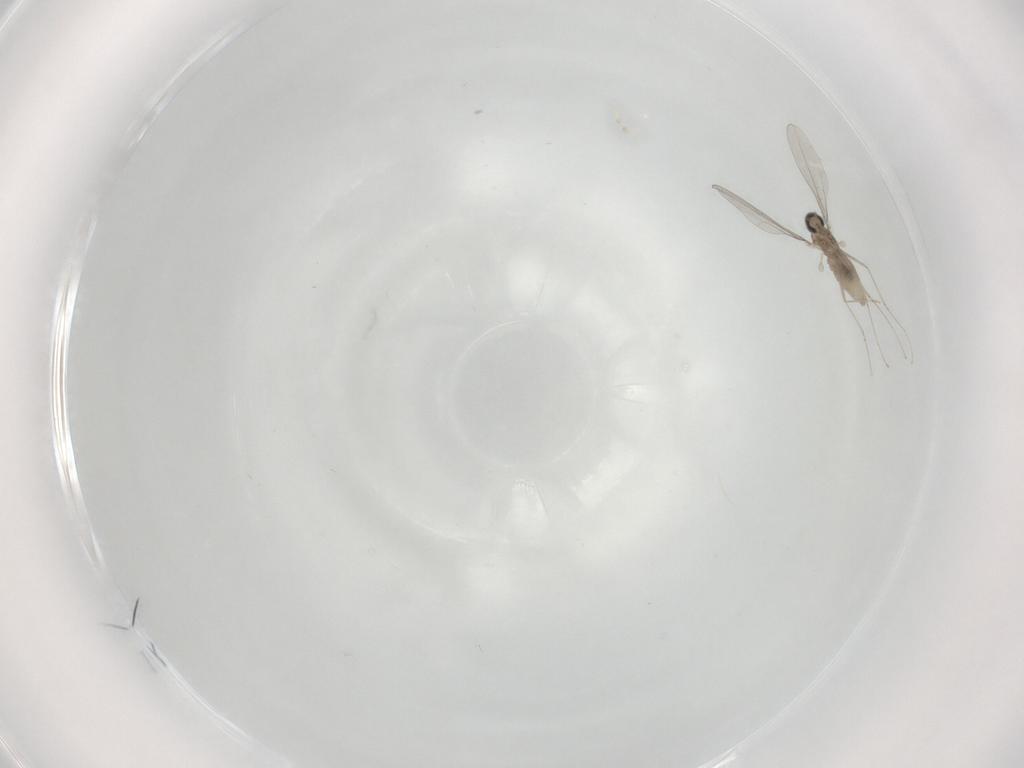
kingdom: Animalia
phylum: Arthropoda
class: Insecta
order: Diptera
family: Cecidomyiidae
